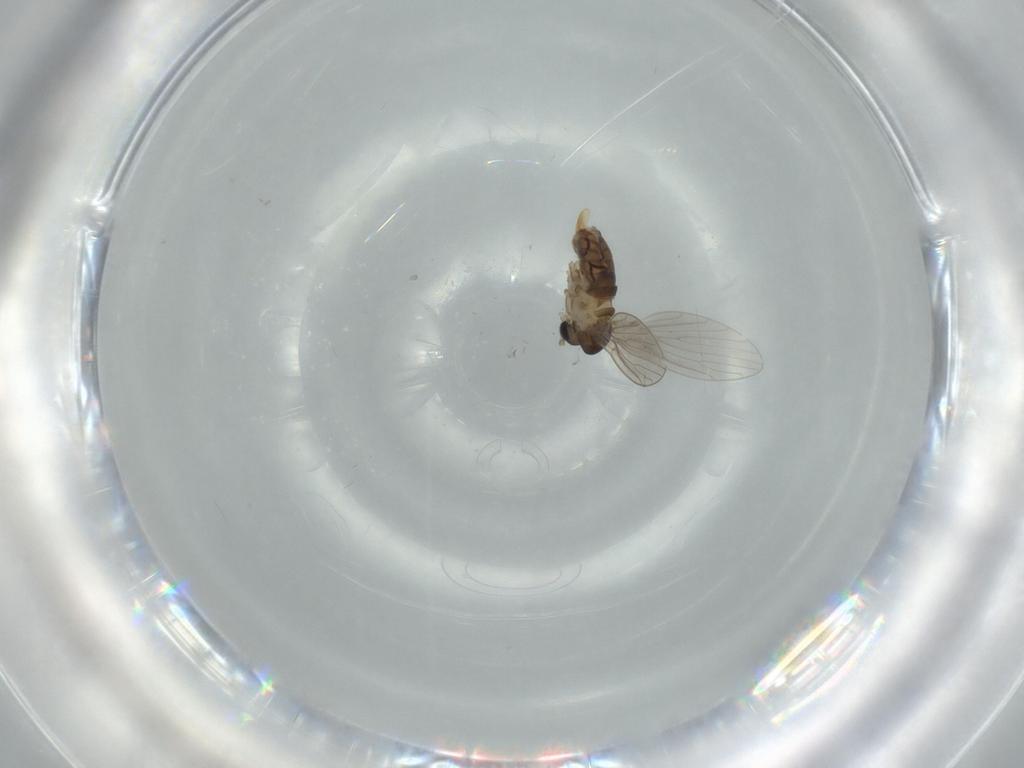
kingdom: Animalia
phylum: Arthropoda
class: Insecta
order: Diptera
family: Psychodidae
